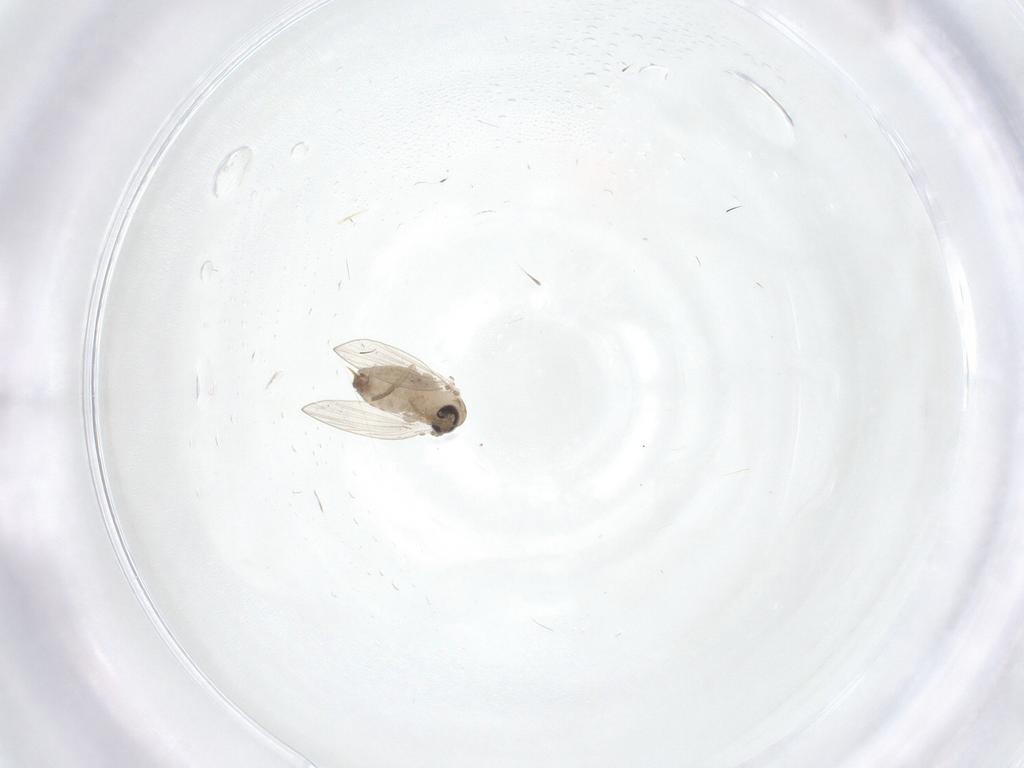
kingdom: Animalia
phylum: Arthropoda
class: Insecta
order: Diptera
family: Psychodidae
